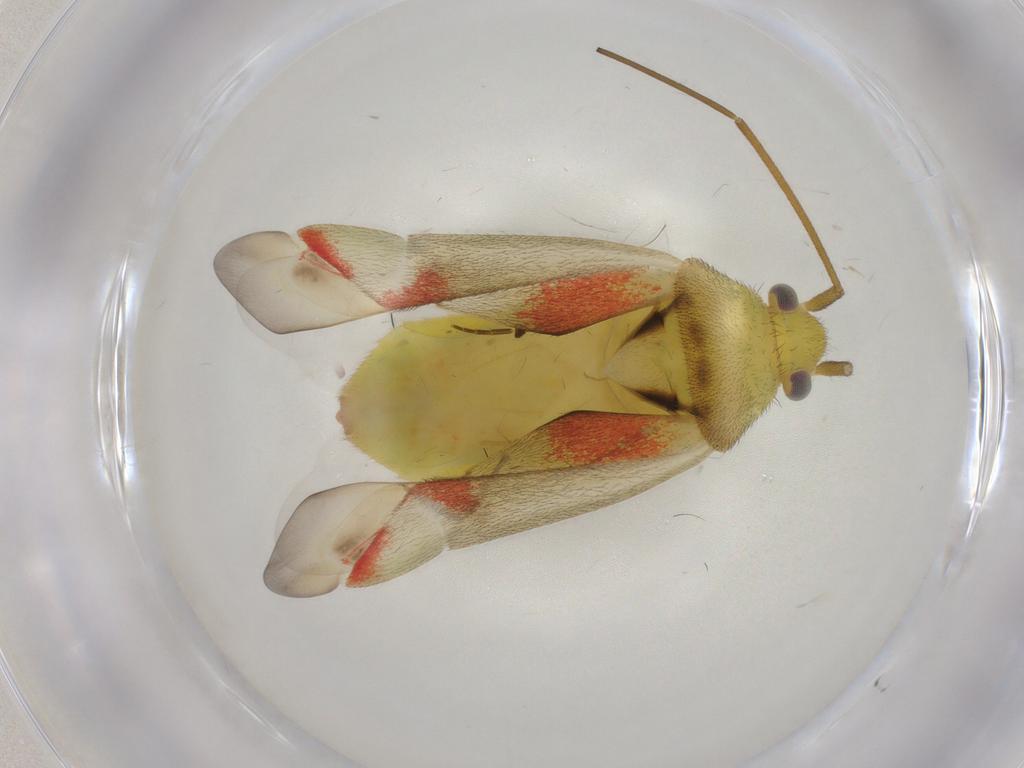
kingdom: Animalia
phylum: Arthropoda
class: Insecta
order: Hemiptera
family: Miridae
